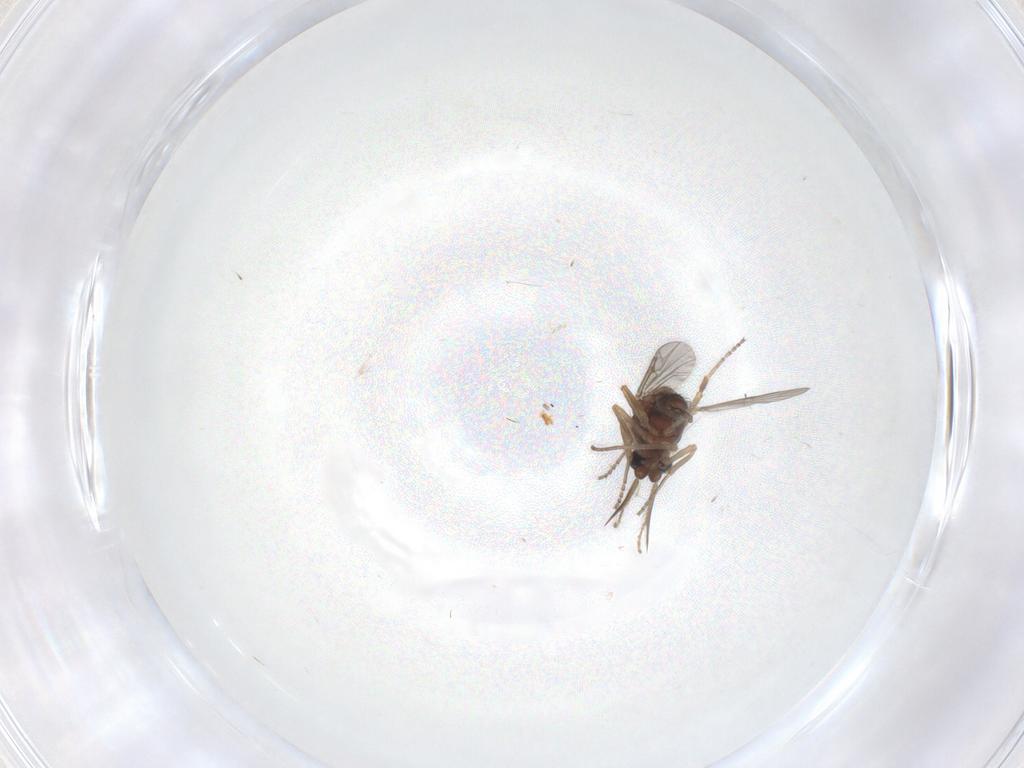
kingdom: Animalia
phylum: Arthropoda
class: Insecta
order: Diptera
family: Ceratopogonidae
